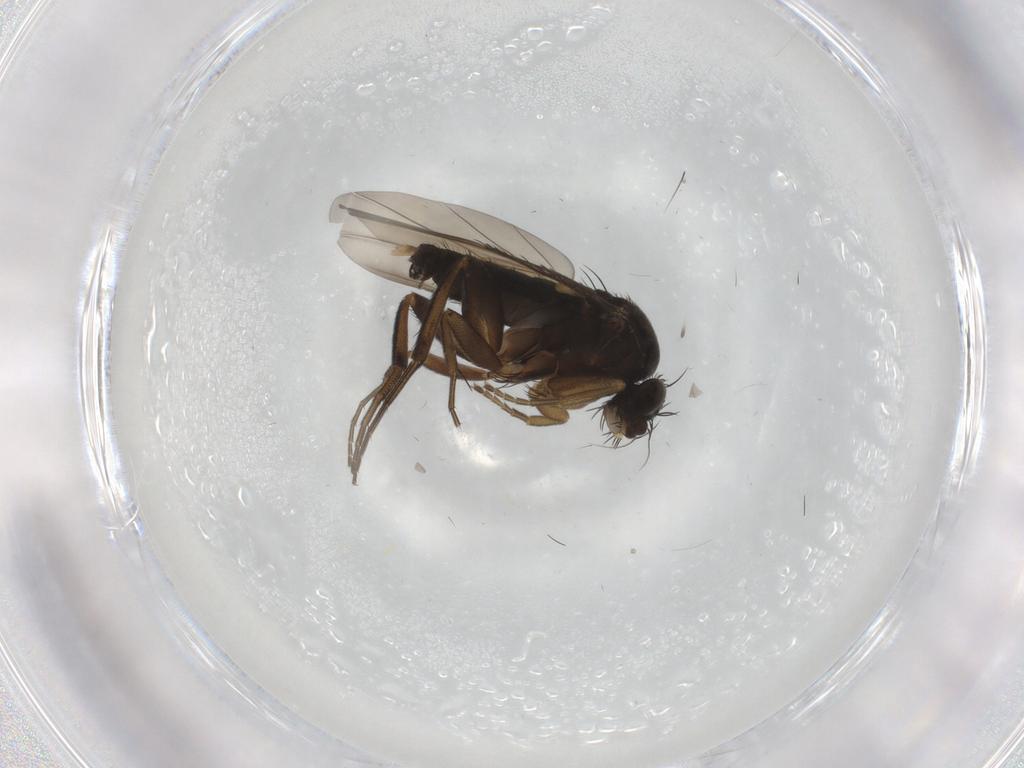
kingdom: Animalia
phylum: Arthropoda
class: Insecta
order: Diptera
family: Phoridae
